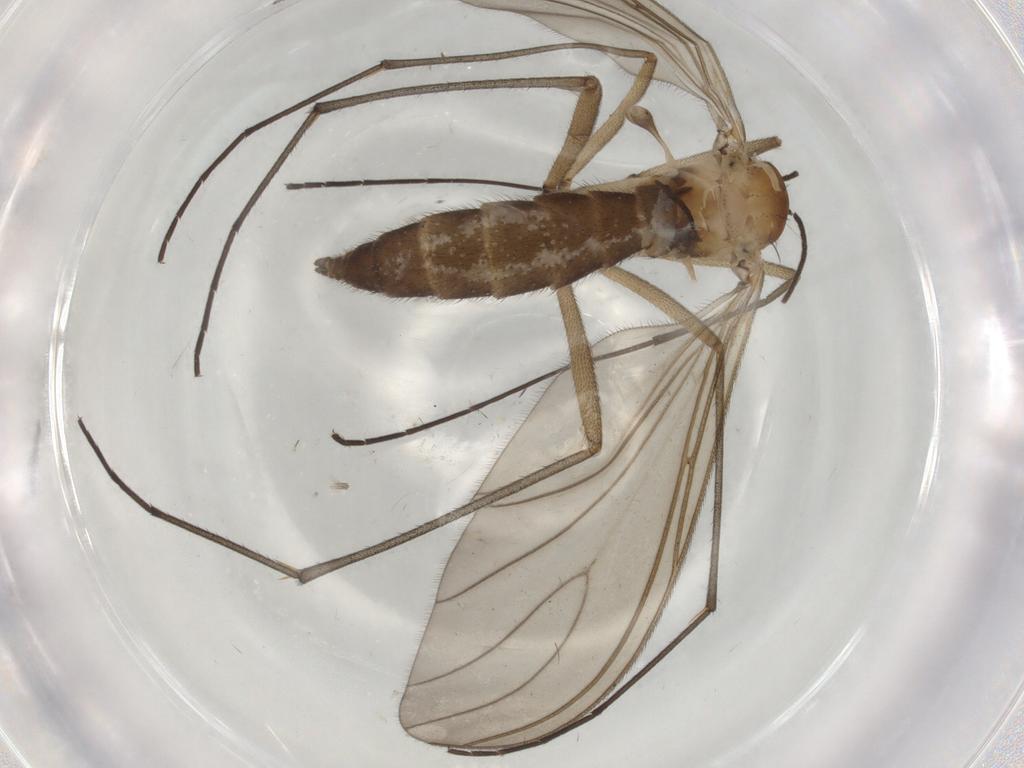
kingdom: Animalia
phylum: Arthropoda
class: Insecta
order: Diptera
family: Sciaridae
